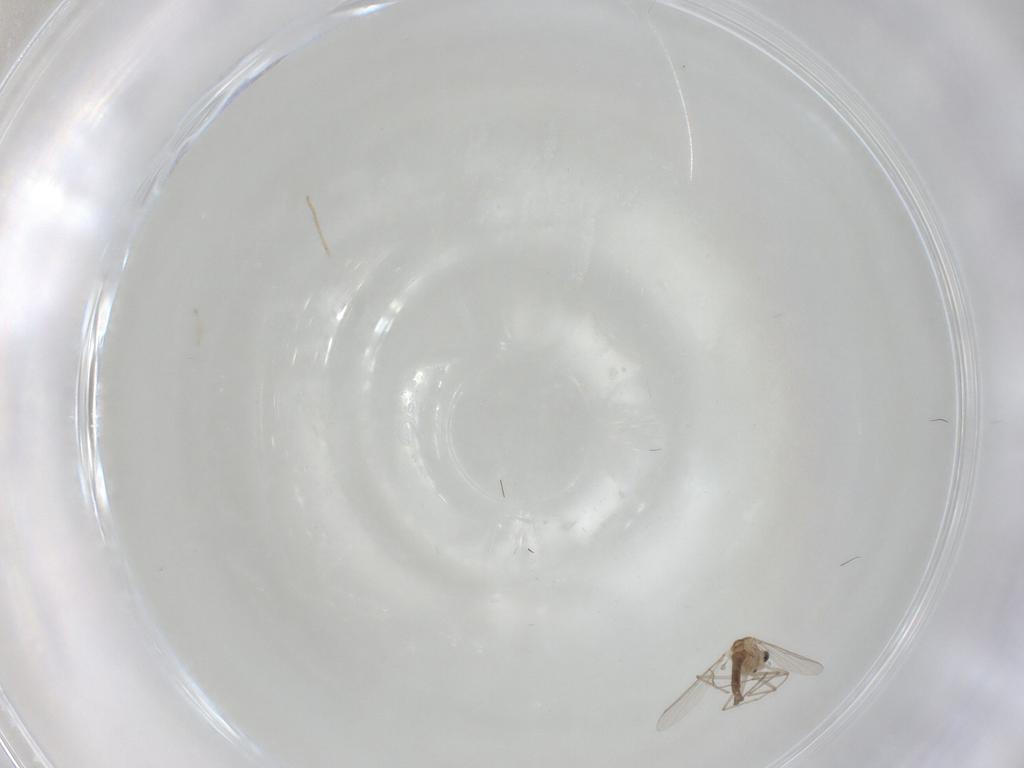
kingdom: Animalia
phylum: Arthropoda
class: Insecta
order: Diptera
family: Chironomidae
